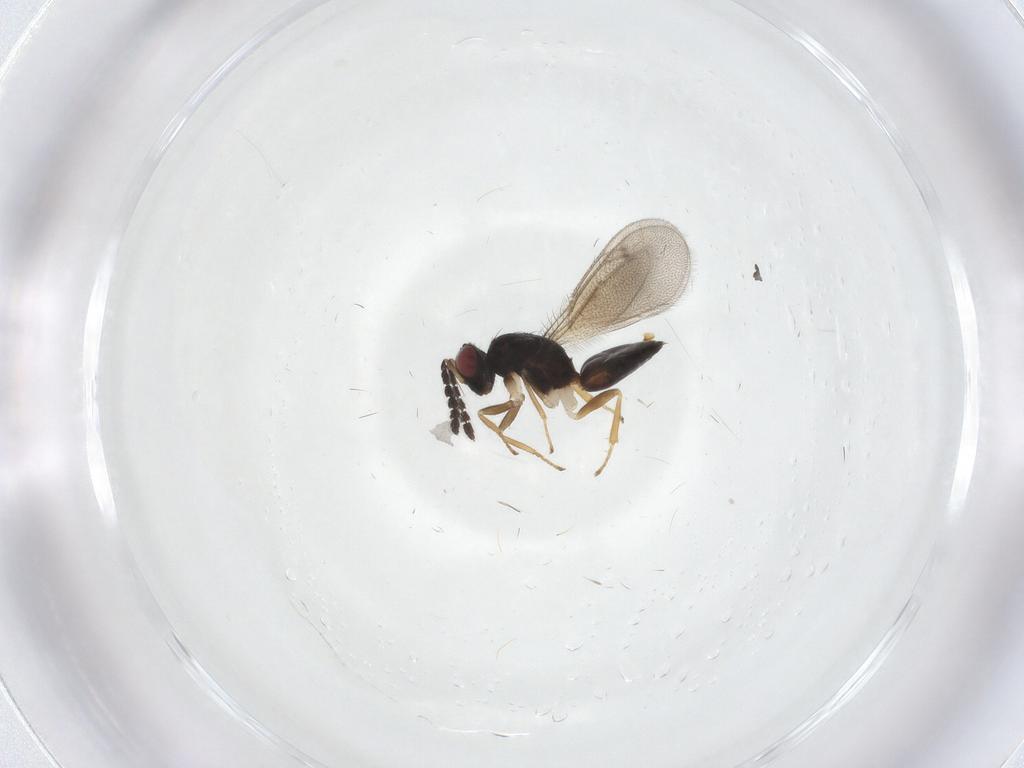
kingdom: Animalia
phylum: Arthropoda
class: Insecta
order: Hymenoptera
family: Eulophidae
